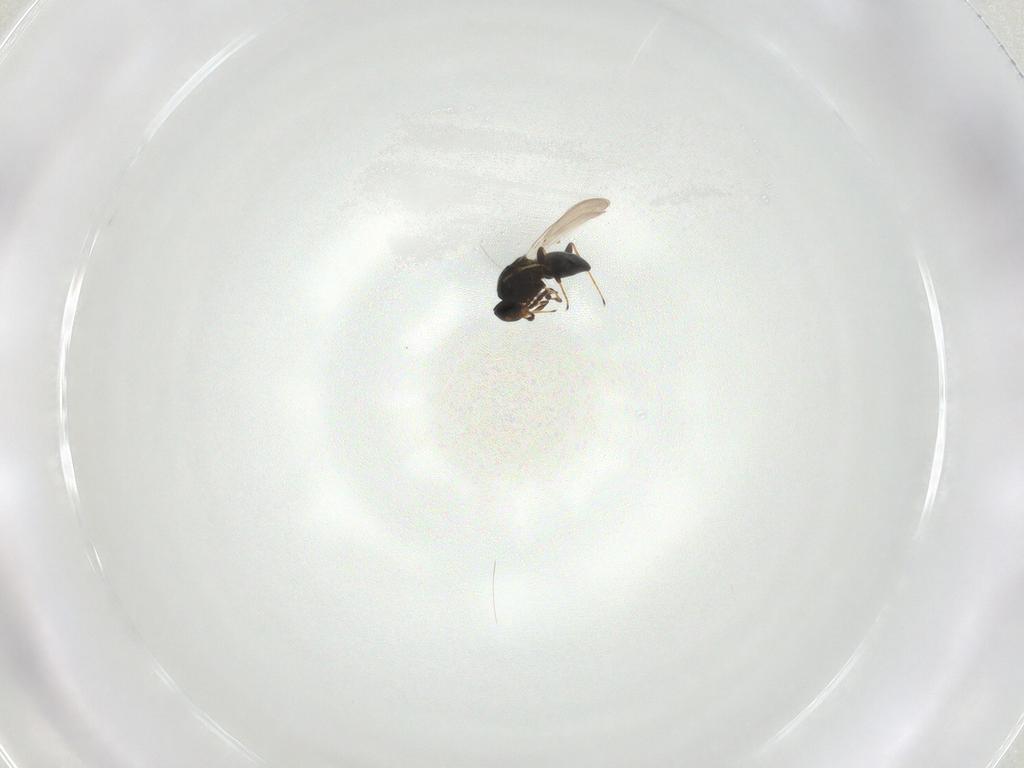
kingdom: Animalia
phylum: Arthropoda
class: Insecta
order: Hymenoptera
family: Platygastridae
